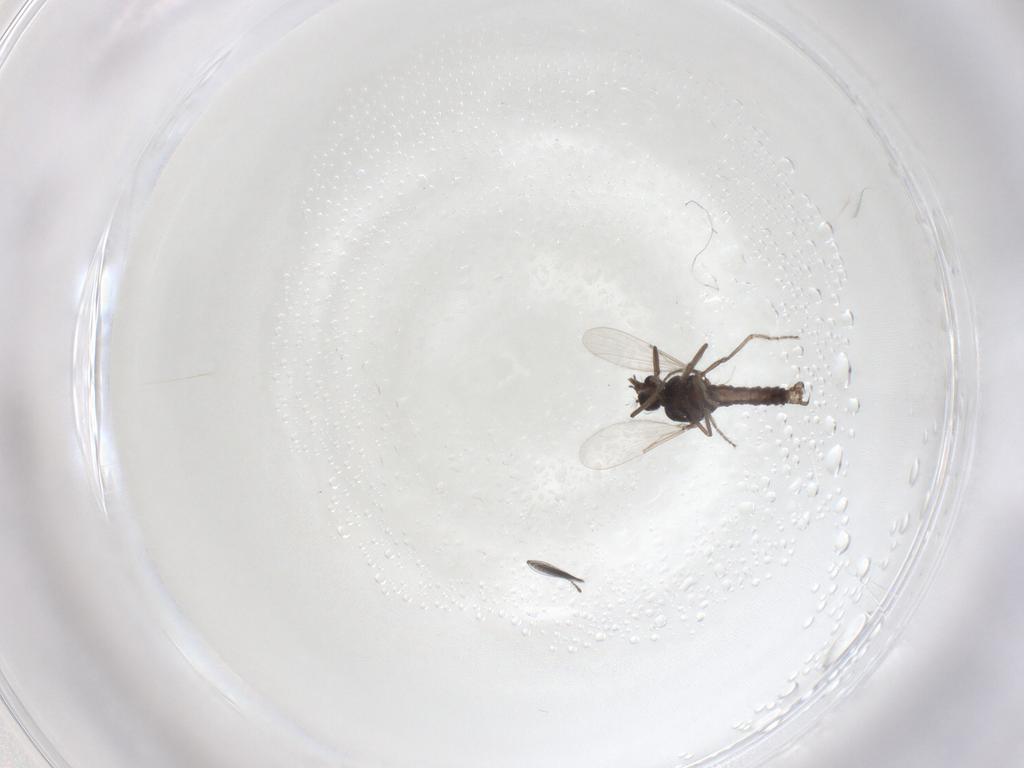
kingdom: Animalia
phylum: Arthropoda
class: Insecta
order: Diptera
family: Ceratopogonidae
